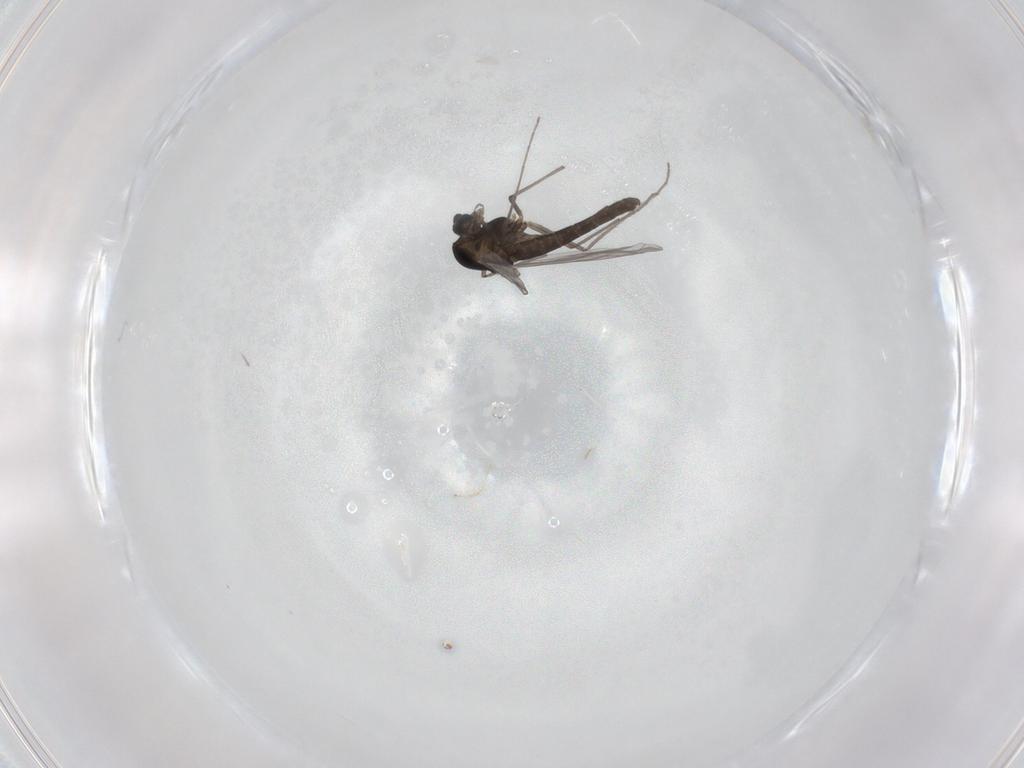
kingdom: Animalia
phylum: Arthropoda
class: Insecta
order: Diptera
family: Chironomidae
